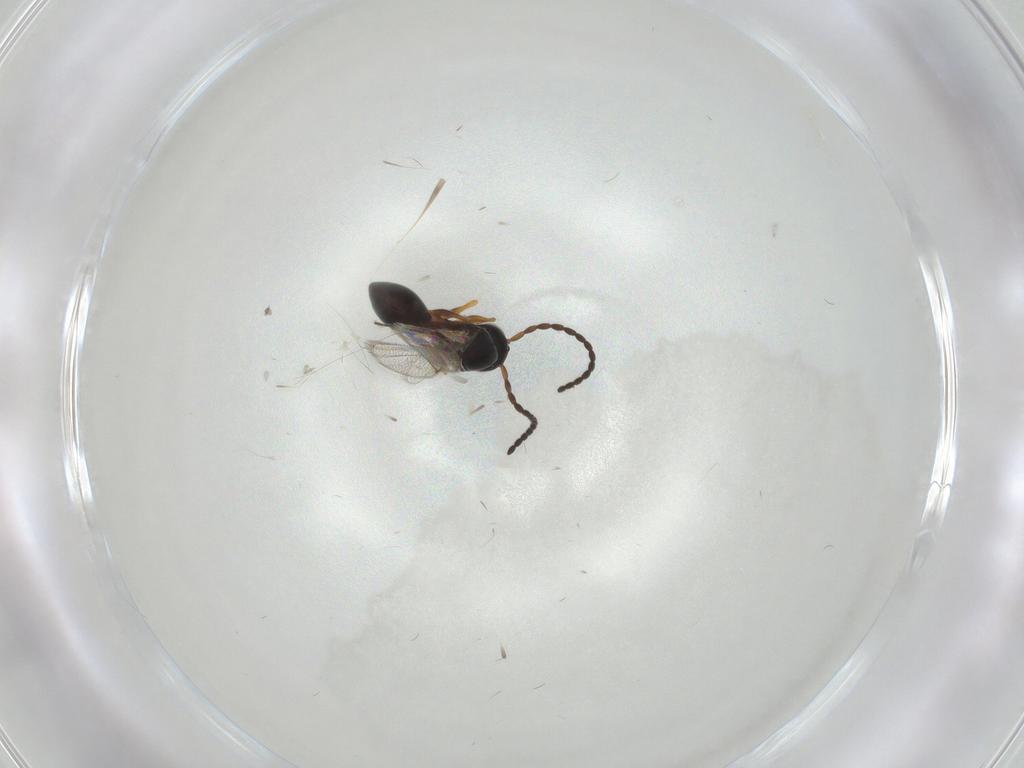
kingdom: Animalia
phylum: Arthropoda
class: Insecta
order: Hymenoptera
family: Figitidae
